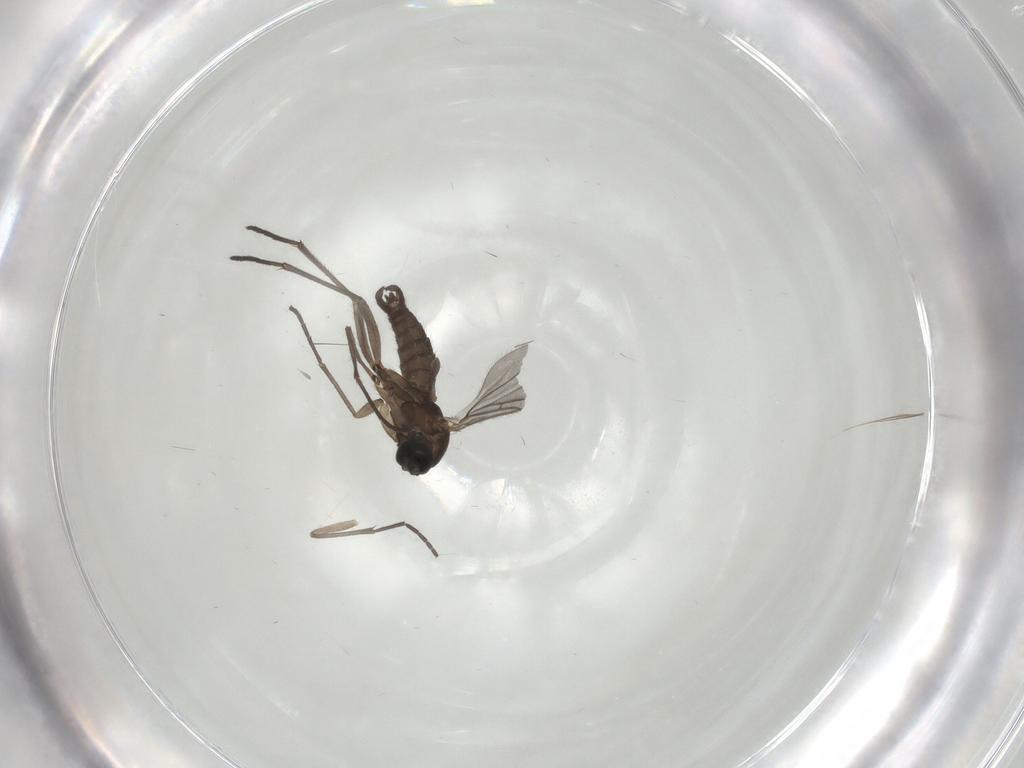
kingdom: Animalia
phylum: Arthropoda
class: Insecta
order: Diptera
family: Sciaridae
